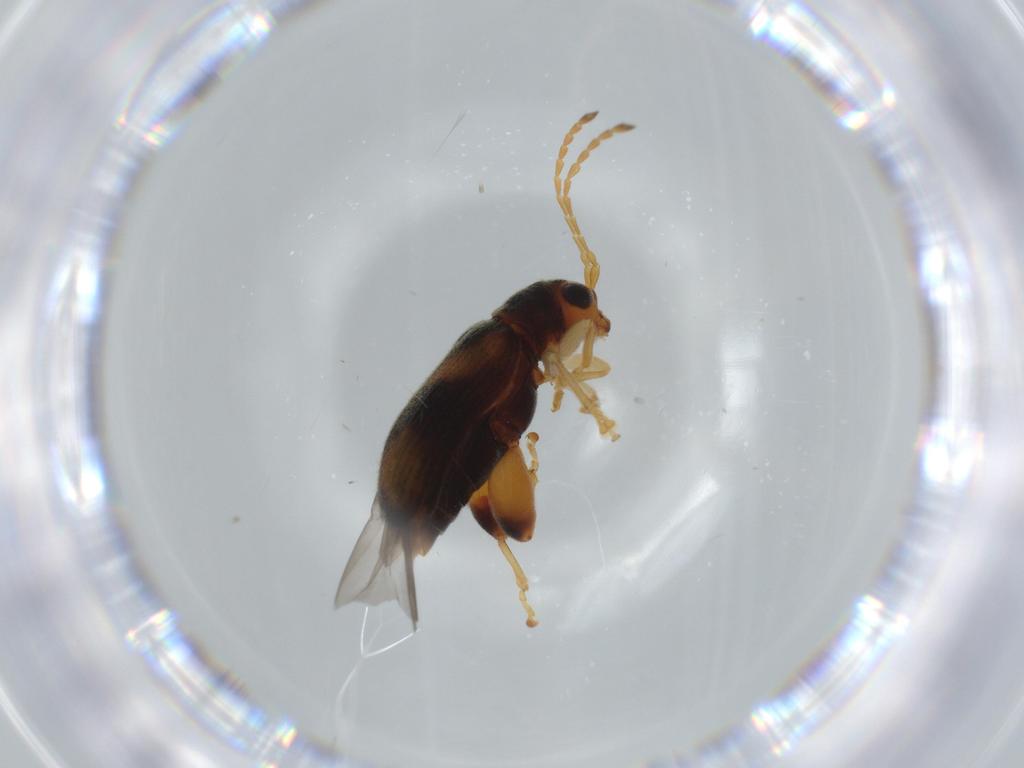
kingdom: Animalia
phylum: Arthropoda
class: Insecta
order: Coleoptera
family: Chrysomelidae
